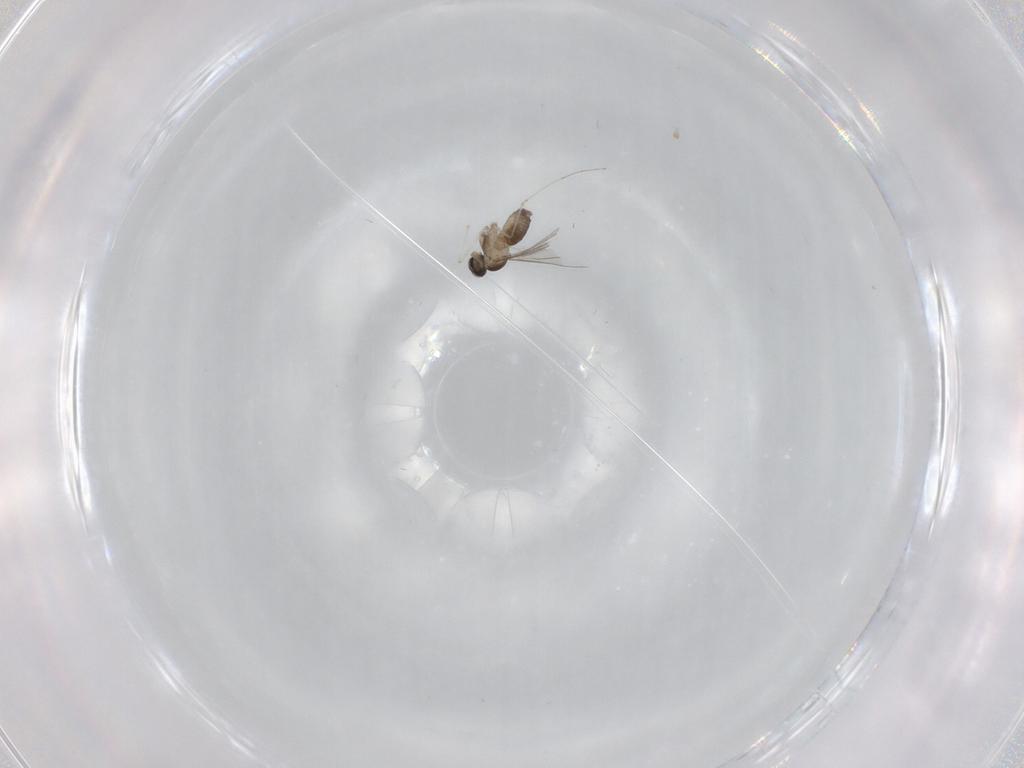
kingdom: Animalia
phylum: Arthropoda
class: Insecta
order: Diptera
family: Cecidomyiidae
